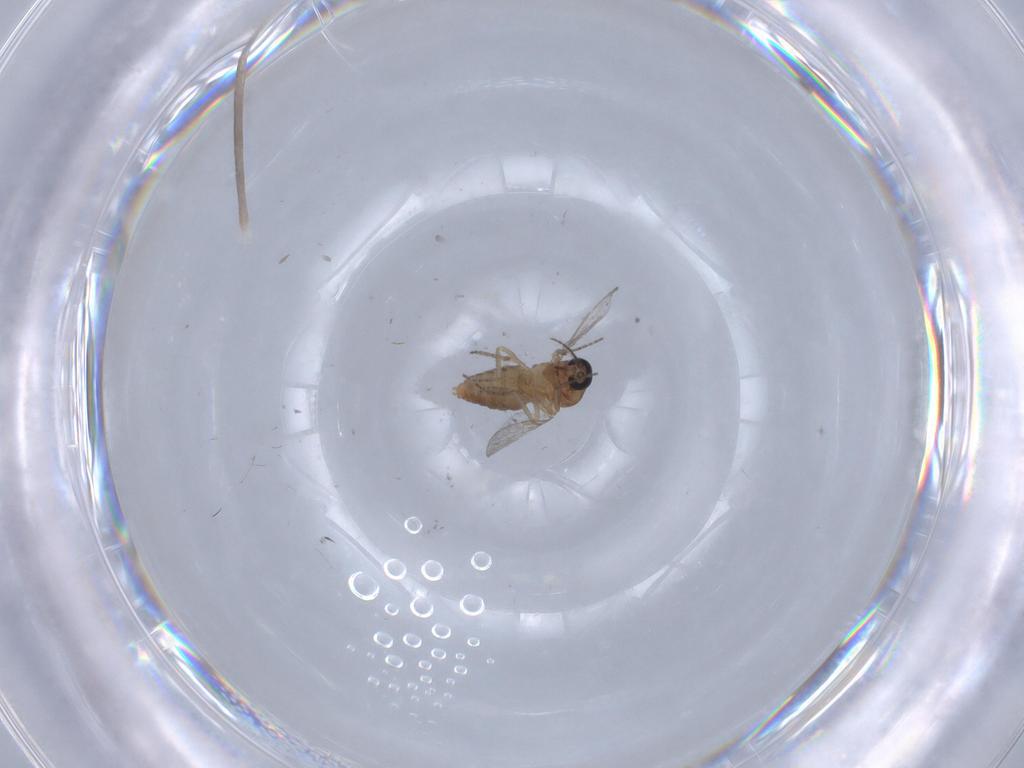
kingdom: Animalia
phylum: Arthropoda
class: Insecta
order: Diptera
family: Ceratopogonidae
